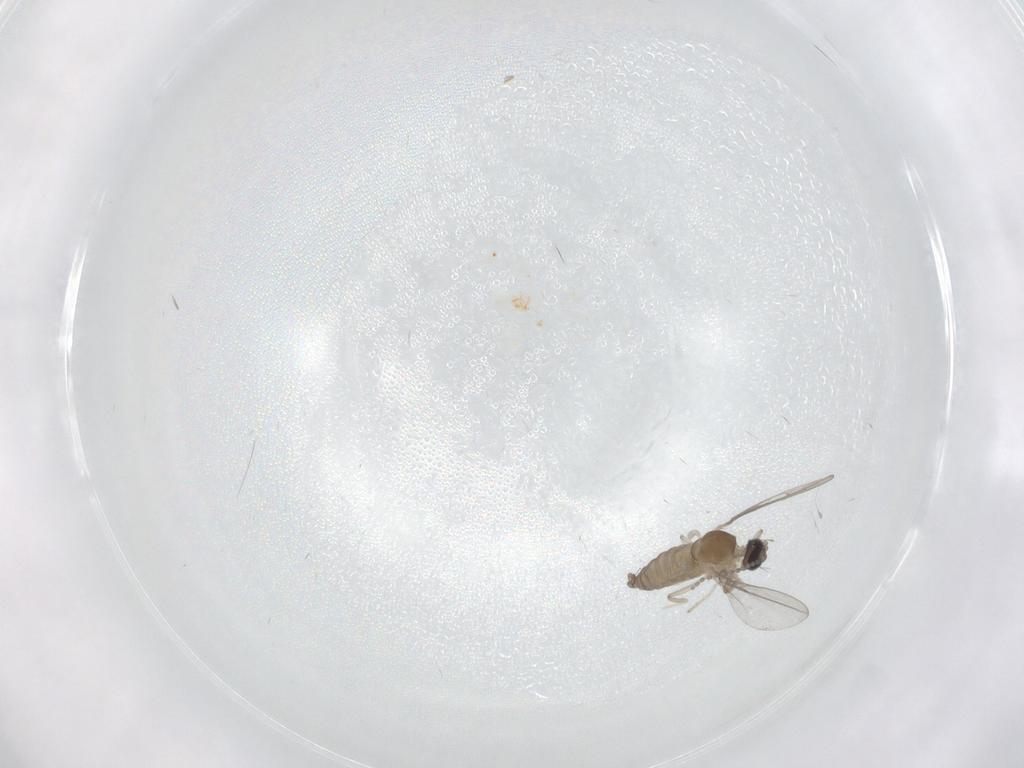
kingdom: Animalia
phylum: Arthropoda
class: Insecta
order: Diptera
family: Cecidomyiidae
